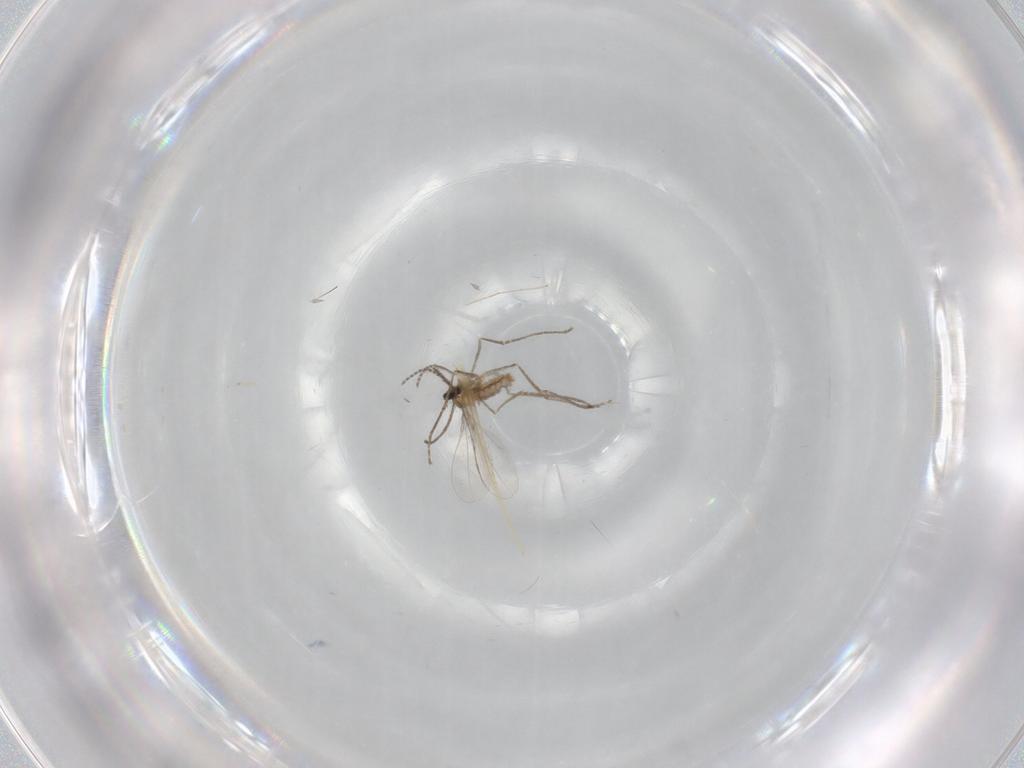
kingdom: Animalia
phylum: Arthropoda
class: Insecta
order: Diptera
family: Cecidomyiidae
